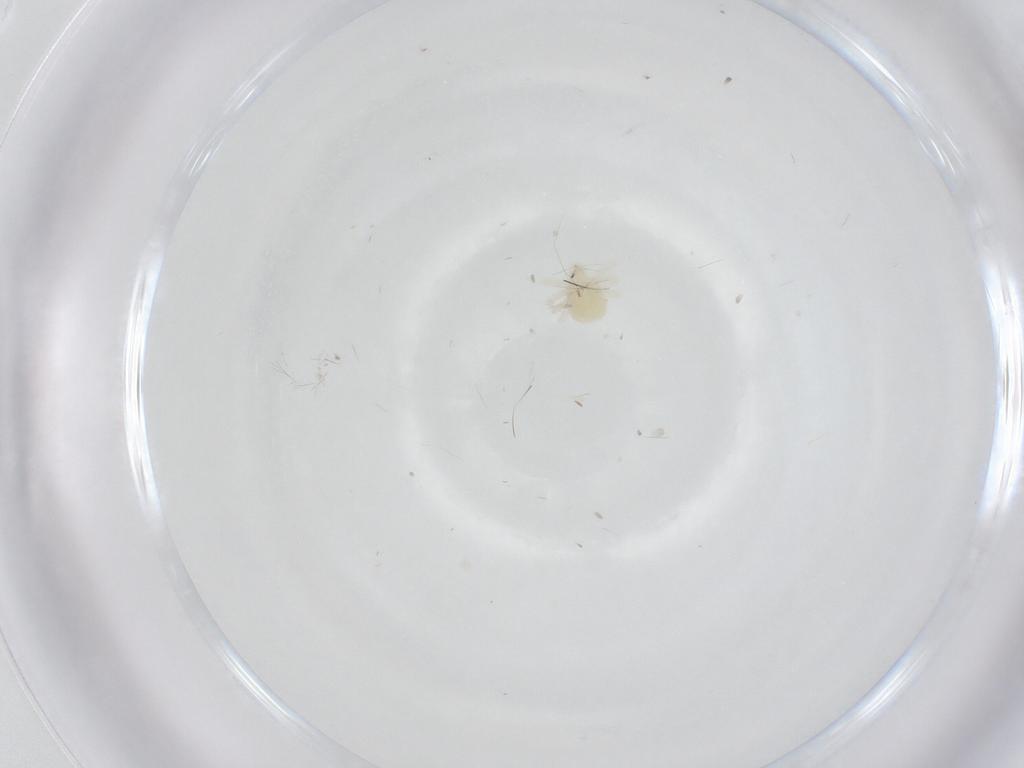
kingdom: Animalia
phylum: Arthropoda
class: Arachnida
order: Trombidiformes
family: Anystidae
